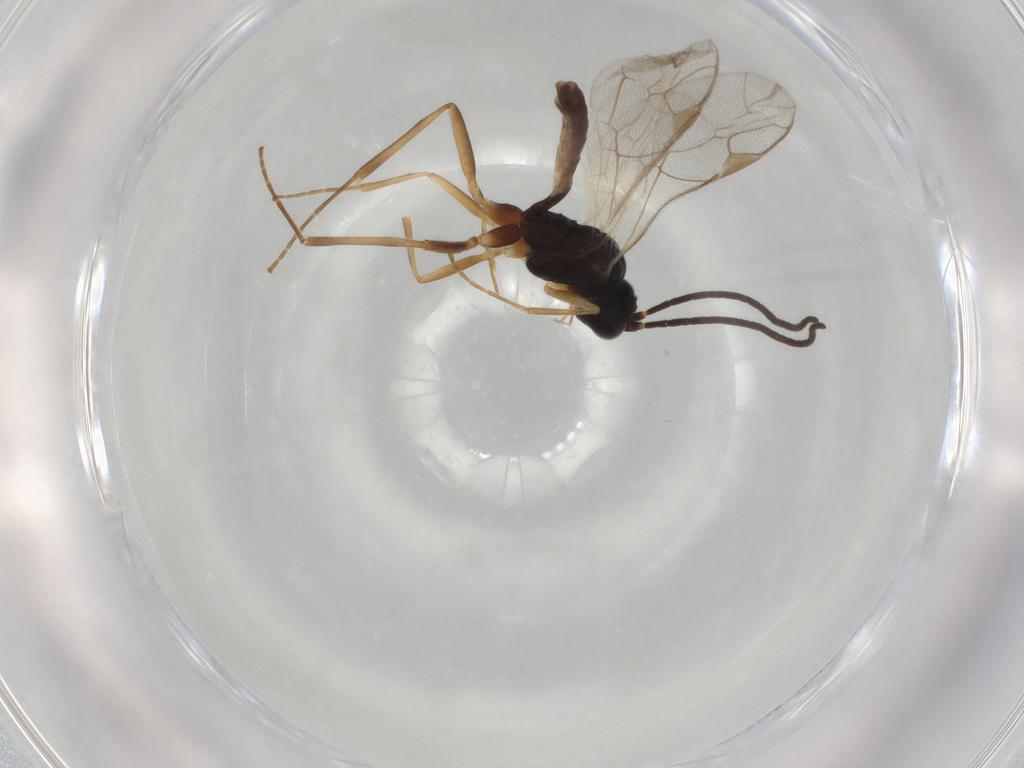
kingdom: Animalia
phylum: Arthropoda
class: Insecta
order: Hymenoptera
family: Ichneumonidae
